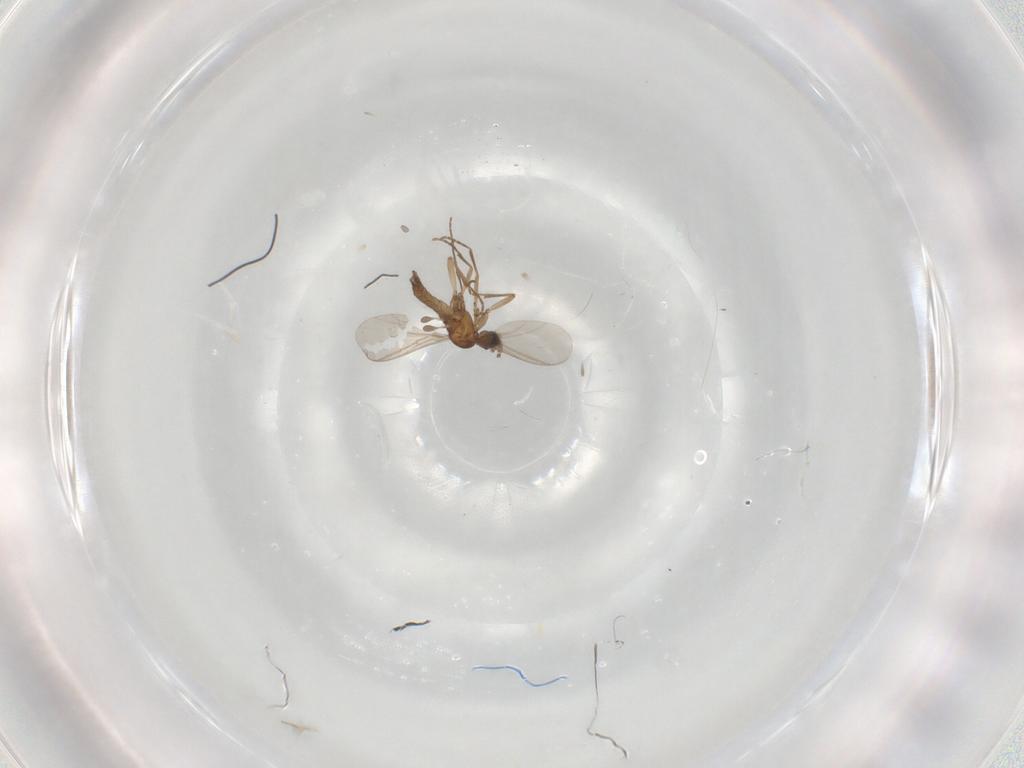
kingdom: Animalia
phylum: Arthropoda
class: Insecta
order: Diptera
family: Sciaridae
